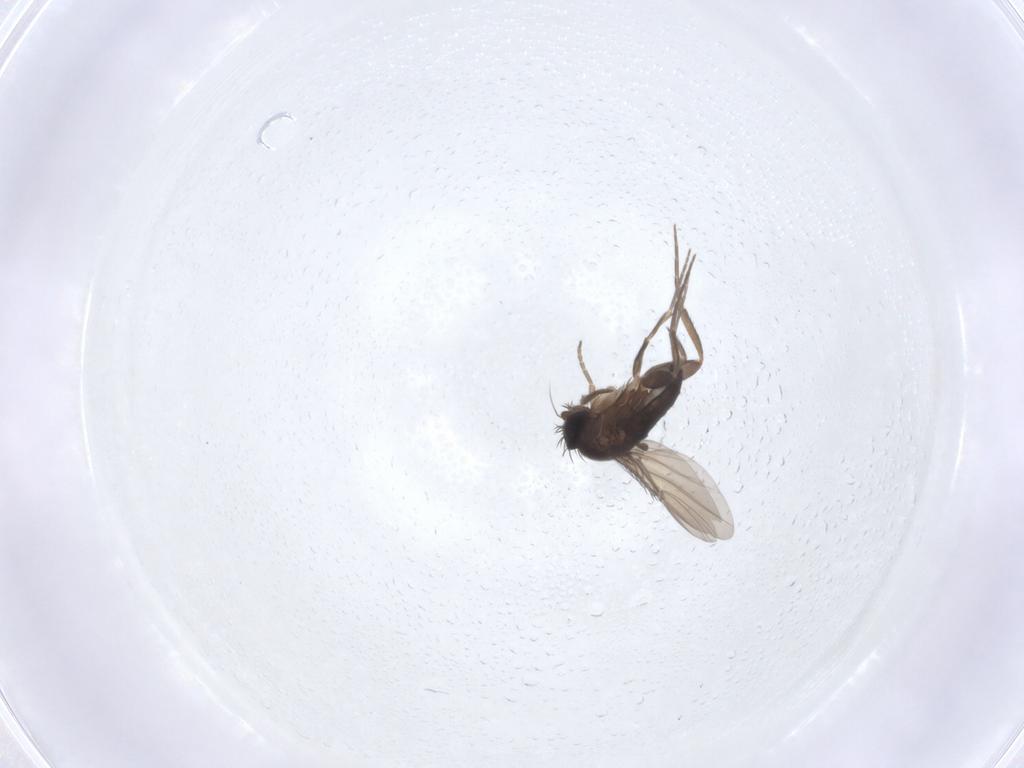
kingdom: Animalia
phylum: Arthropoda
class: Insecta
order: Diptera
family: Phoridae
